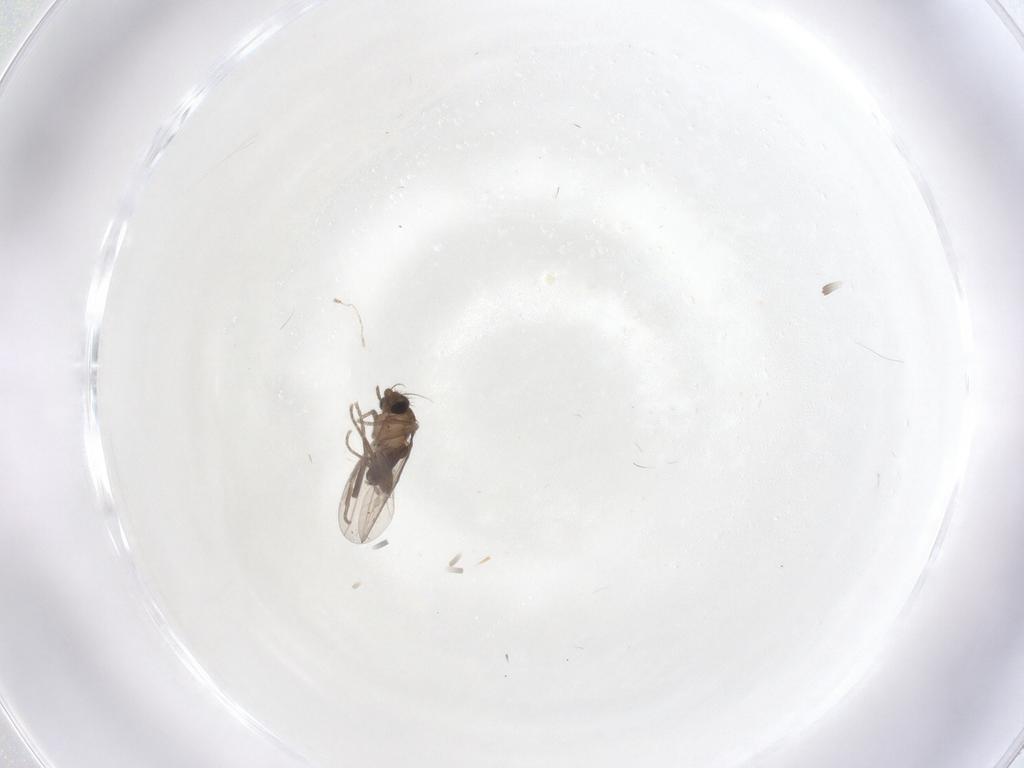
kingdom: Animalia
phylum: Arthropoda
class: Insecta
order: Diptera
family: Phoridae
